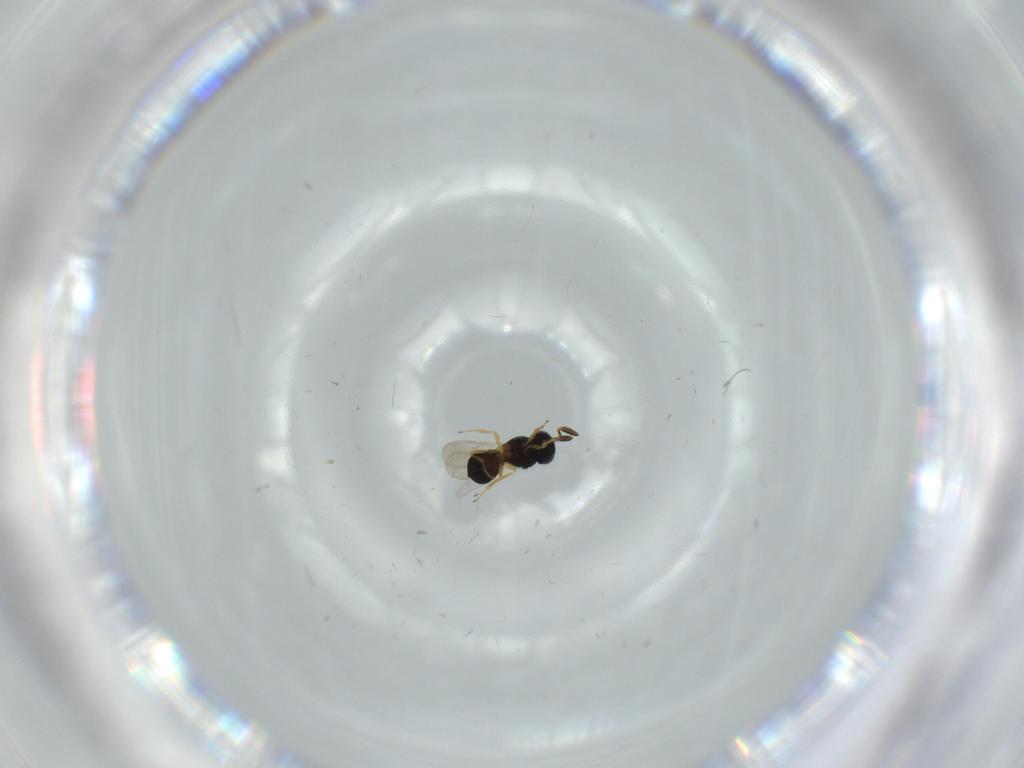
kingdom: Animalia
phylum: Arthropoda
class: Insecta
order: Hymenoptera
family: Scelionidae
